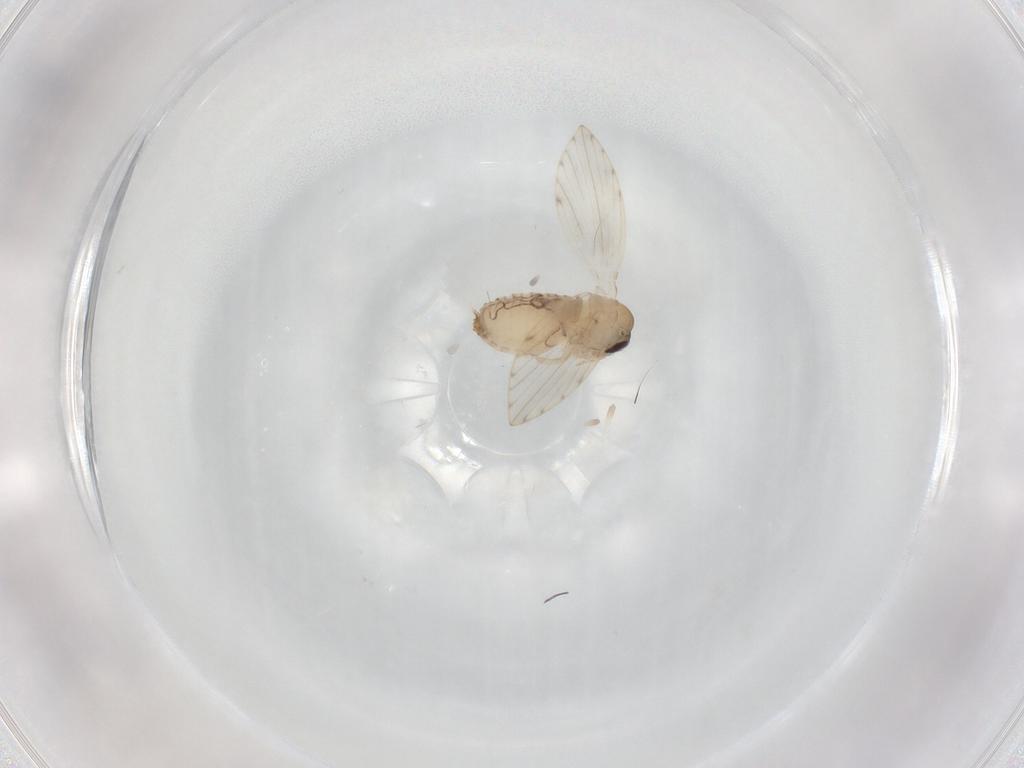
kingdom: Animalia
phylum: Arthropoda
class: Insecta
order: Diptera
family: Psychodidae
